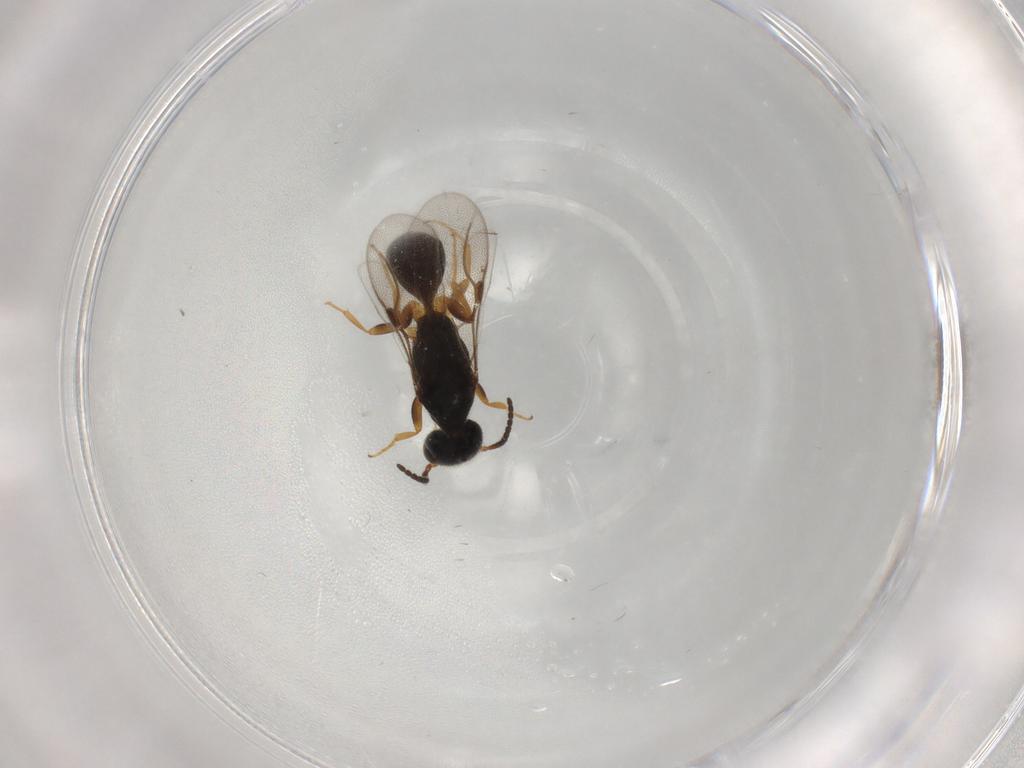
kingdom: Animalia
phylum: Arthropoda
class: Insecta
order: Hymenoptera
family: Bethylidae
